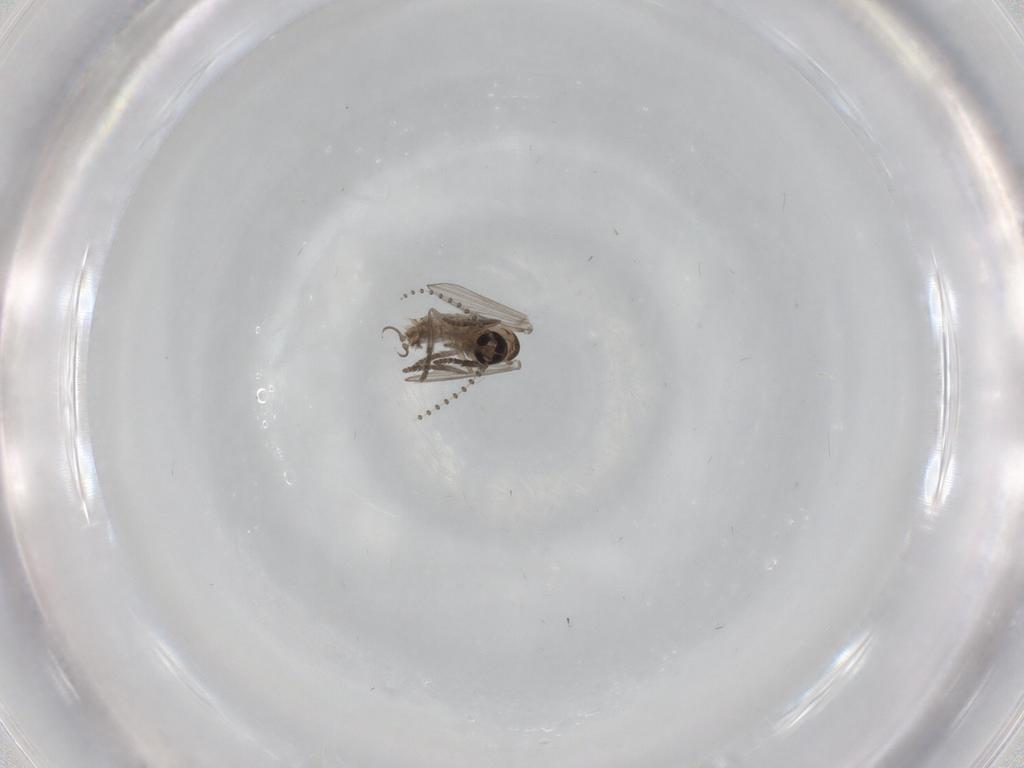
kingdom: Animalia
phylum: Arthropoda
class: Insecta
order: Diptera
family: Psychodidae
